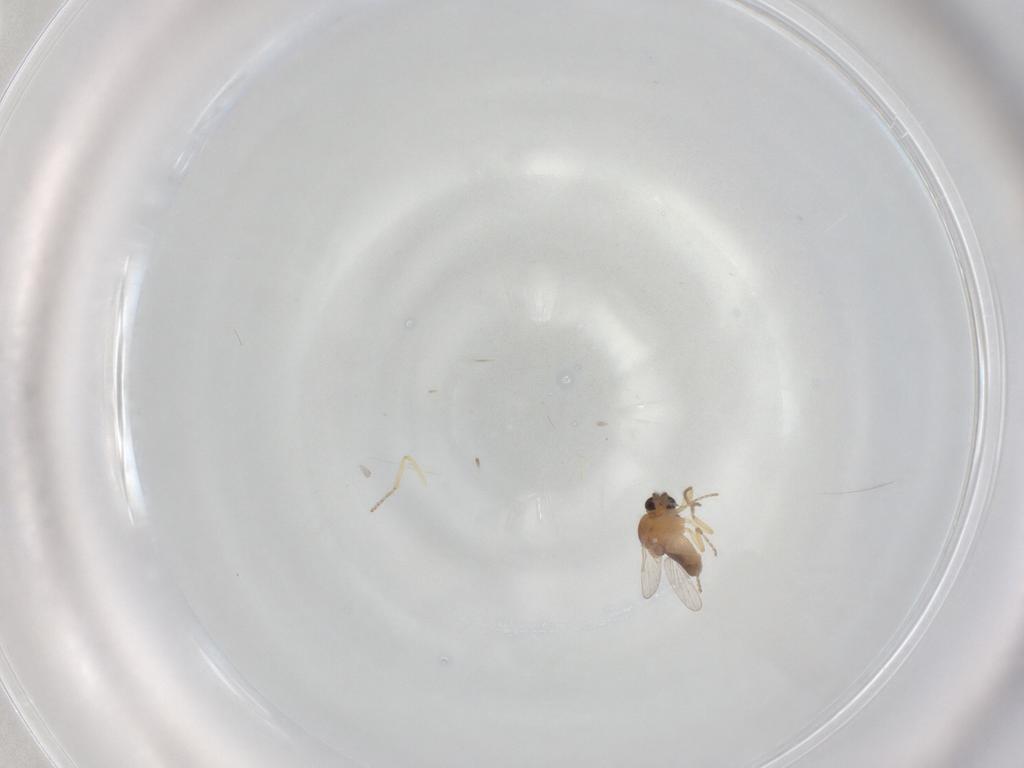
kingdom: Animalia
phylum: Arthropoda
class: Insecta
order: Diptera
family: Ceratopogonidae
